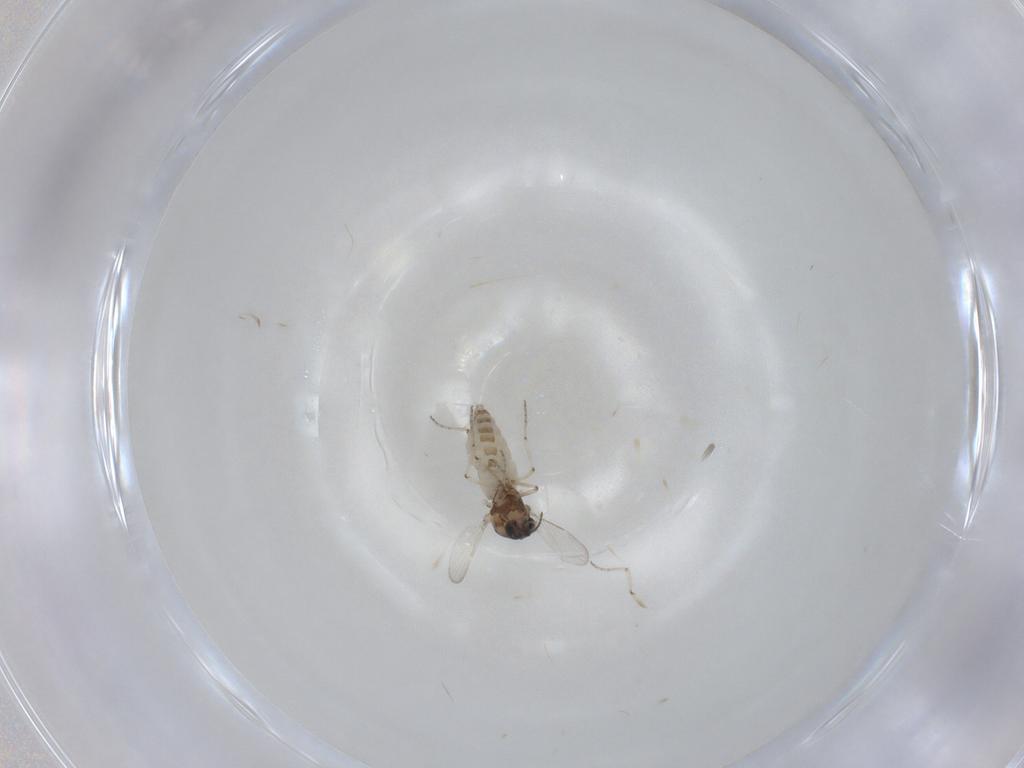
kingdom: Animalia
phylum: Arthropoda
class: Insecta
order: Diptera
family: Ceratopogonidae
